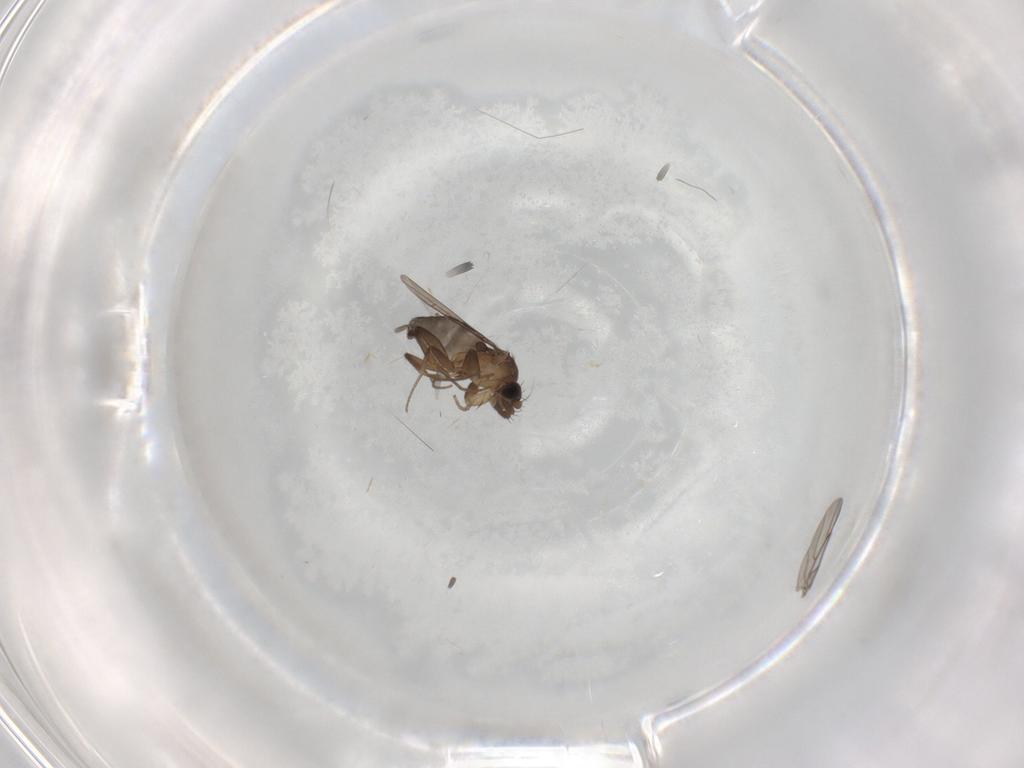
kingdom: Animalia
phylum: Arthropoda
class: Insecta
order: Diptera
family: Phoridae
